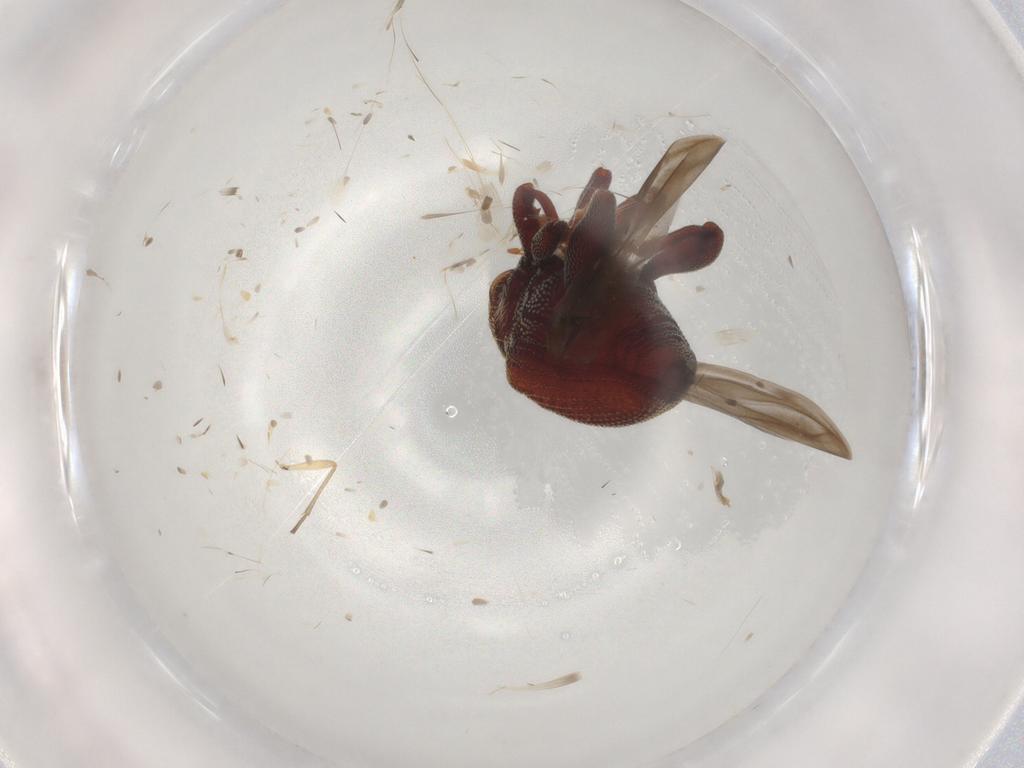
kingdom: Animalia
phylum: Arthropoda
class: Insecta
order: Coleoptera
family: Curculionidae
